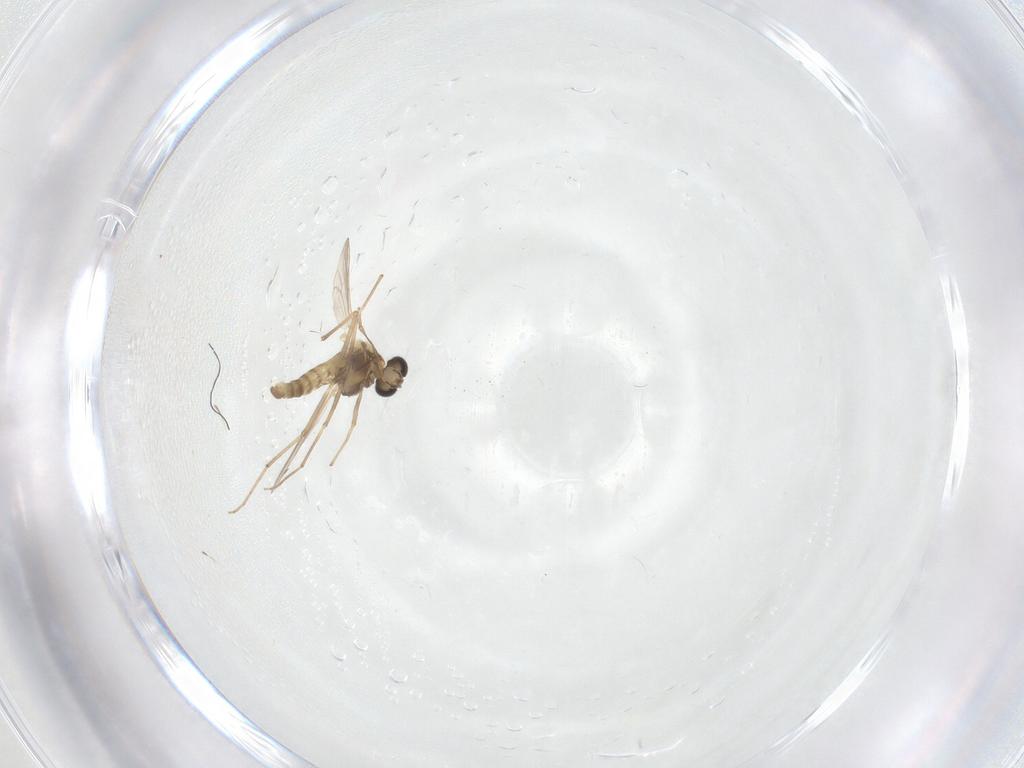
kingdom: Animalia
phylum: Arthropoda
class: Insecta
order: Diptera
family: Chironomidae
